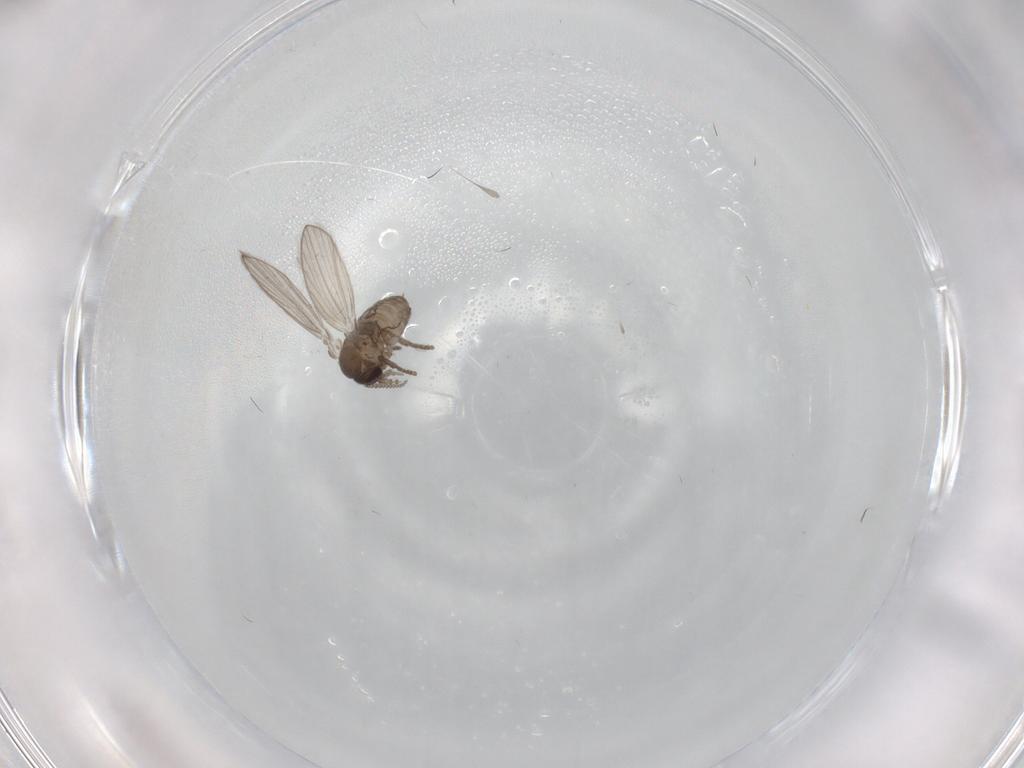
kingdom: Animalia
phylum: Arthropoda
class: Insecta
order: Diptera
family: Psychodidae
